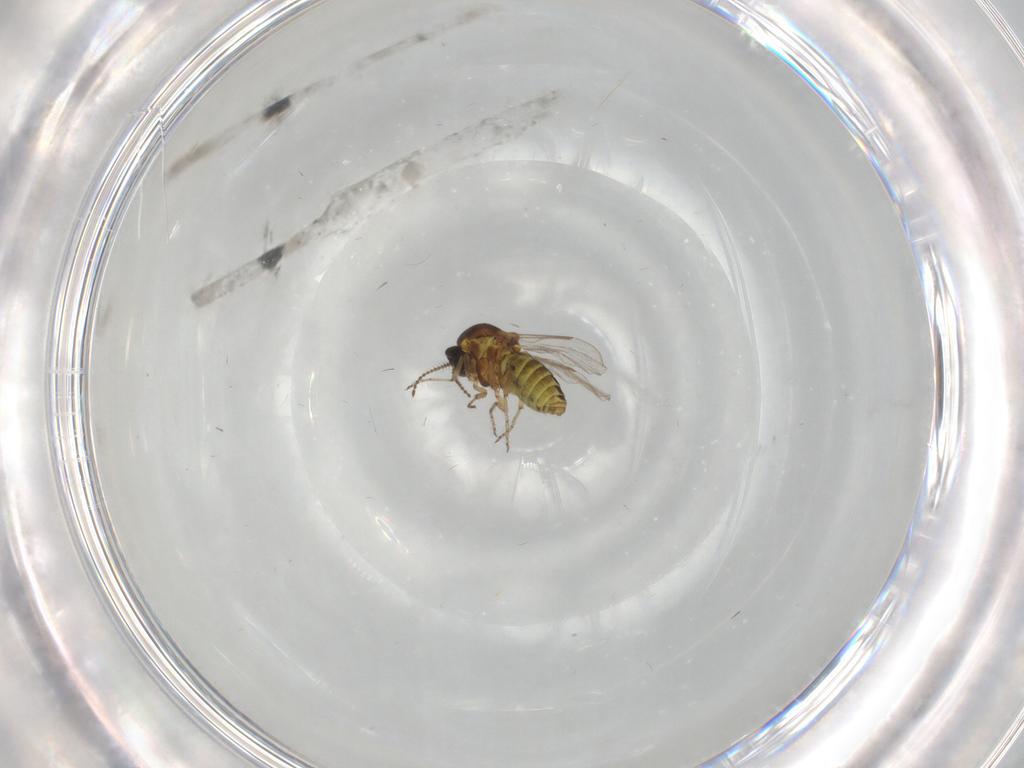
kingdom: Animalia
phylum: Arthropoda
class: Insecta
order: Diptera
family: Ceratopogonidae
